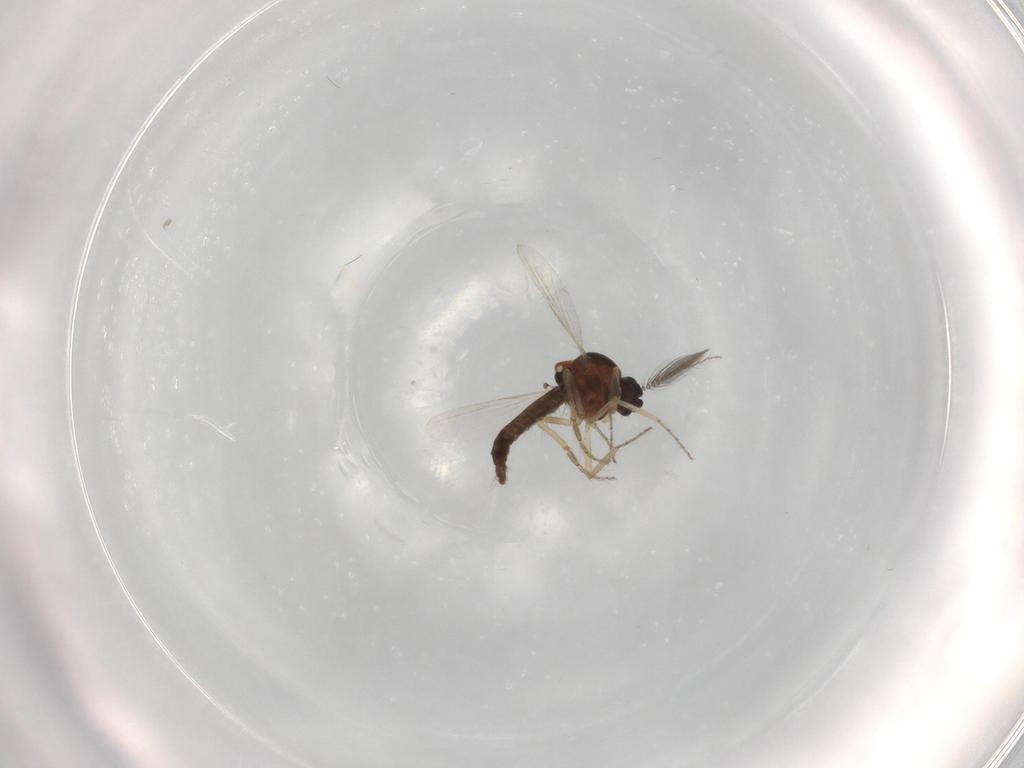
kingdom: Animalia
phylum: Arthropoda
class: Insecta
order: Diptera
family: Ceratopogonidae
